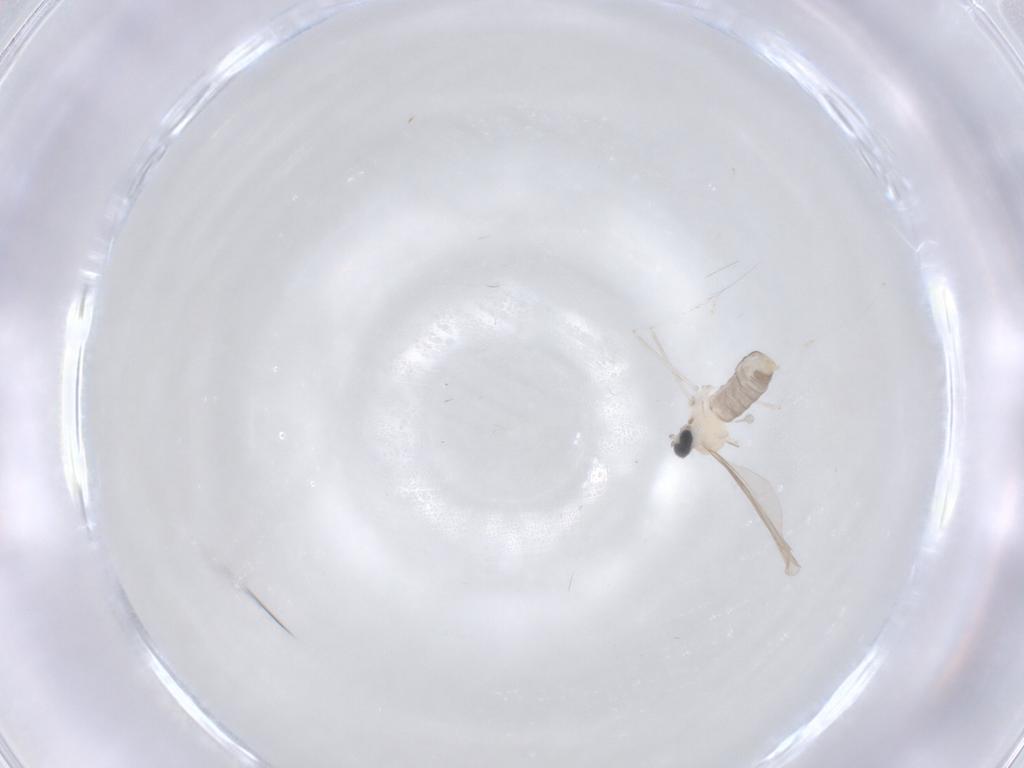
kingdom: Animalia
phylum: Arthropoda
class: Insecta
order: Diptera
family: Cecidomyiidae
